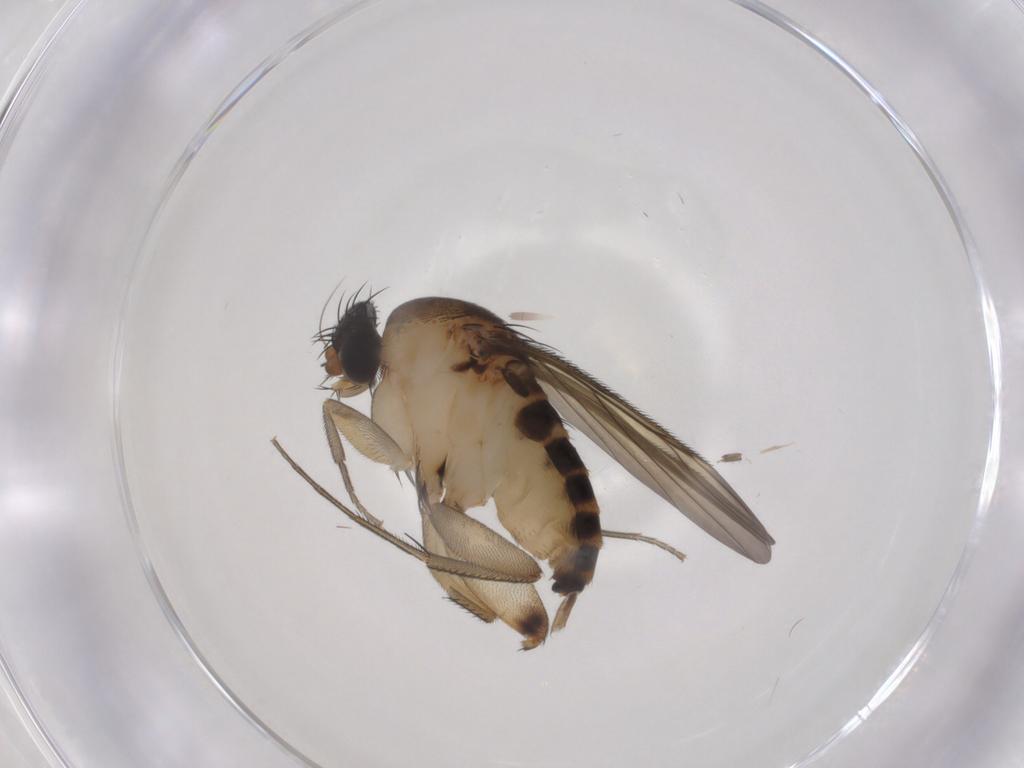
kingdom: Animalia
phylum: Arthropoda
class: Insecta
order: Diptera
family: Phoridae
